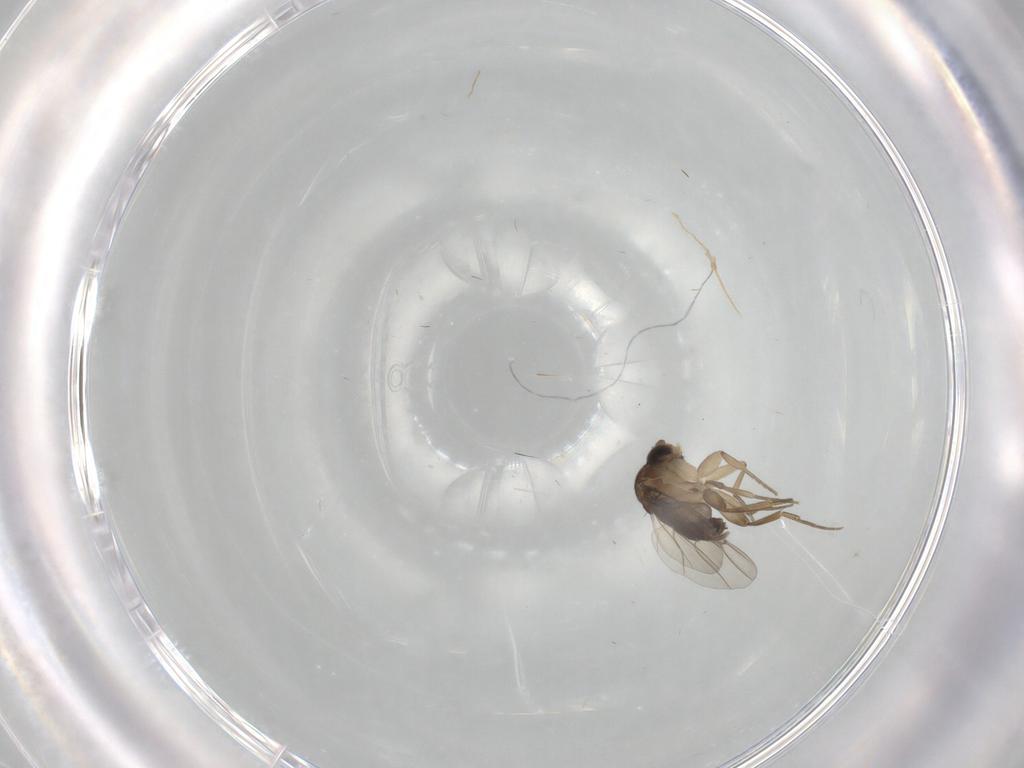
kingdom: Animalia
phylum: Arthropoda
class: Insecta
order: Diptera
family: Phoridae
